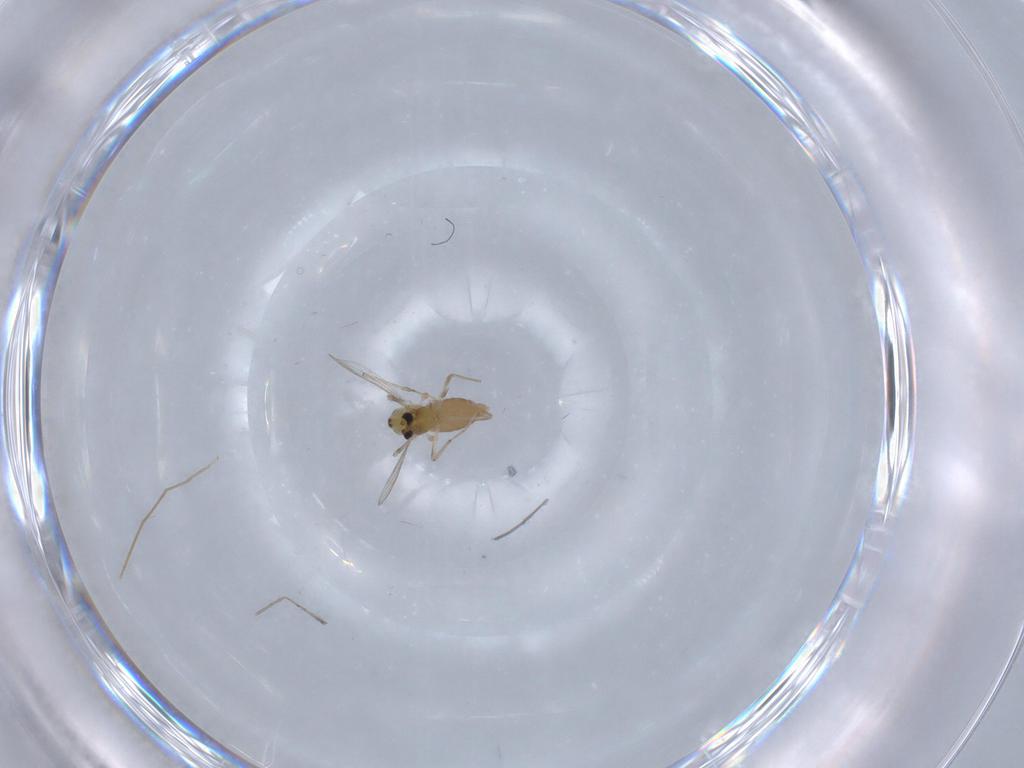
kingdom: Animalia
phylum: Arthropoda
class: Insecta
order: Diptera
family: Chironomidae
